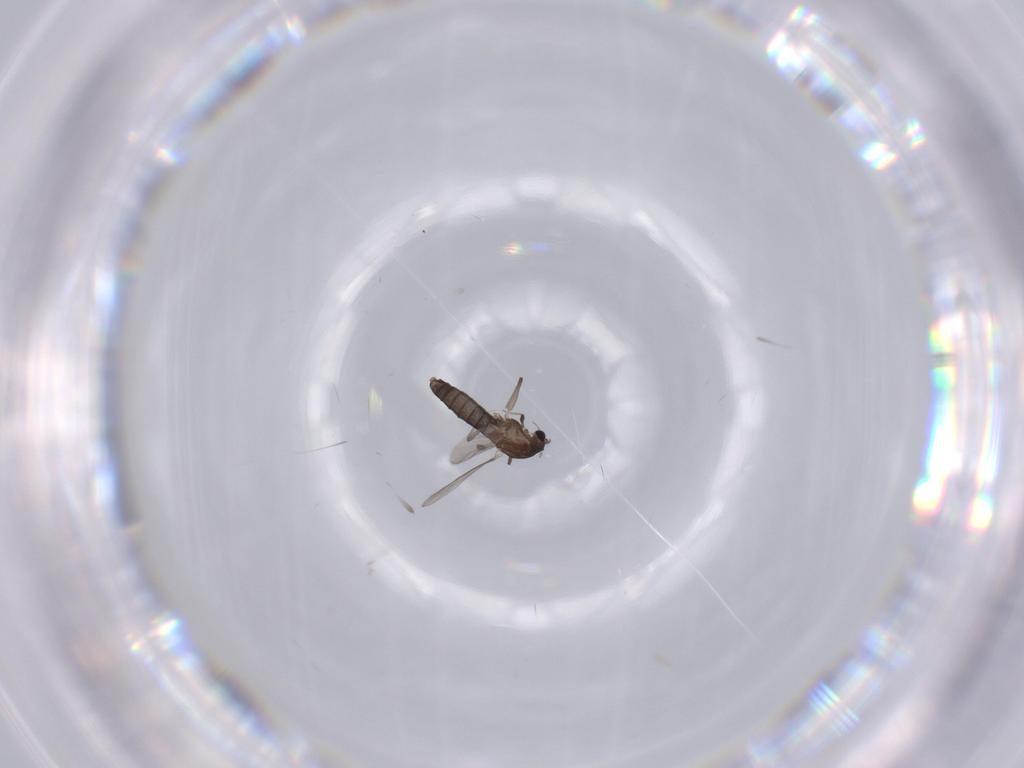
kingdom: Animalia
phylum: Arthropoda
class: Insecta
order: Diptera
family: Chironomidae
